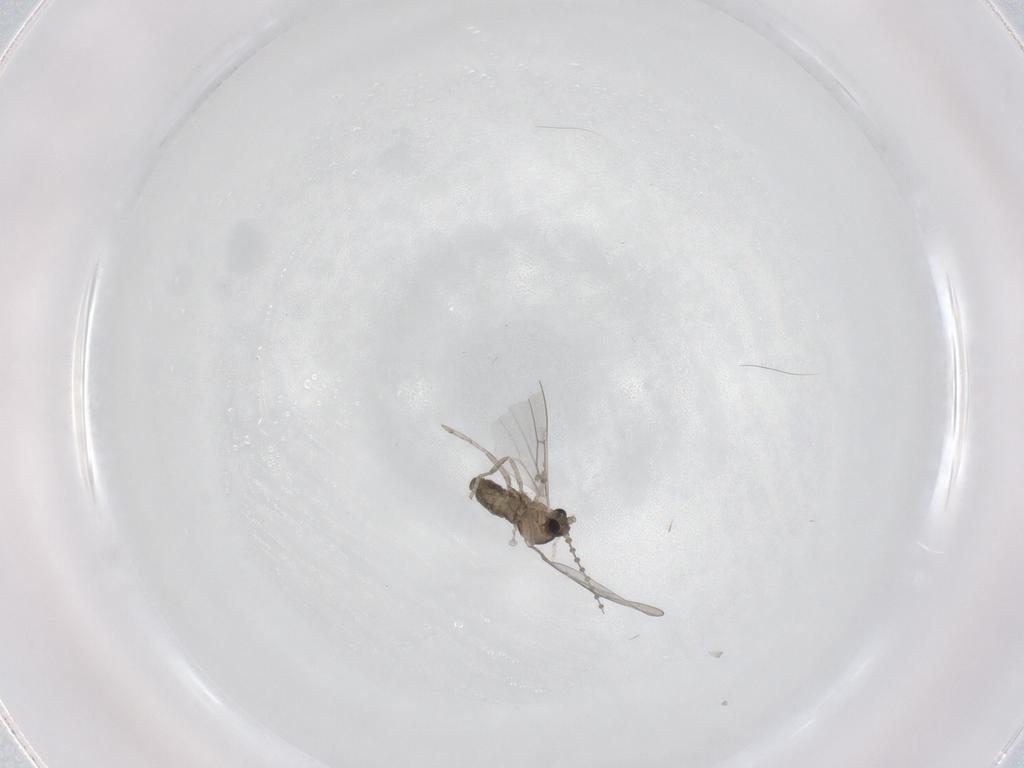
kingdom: Animalia
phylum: Arthropoda
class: Insecta
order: Diptera
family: Cecidomyiidae
